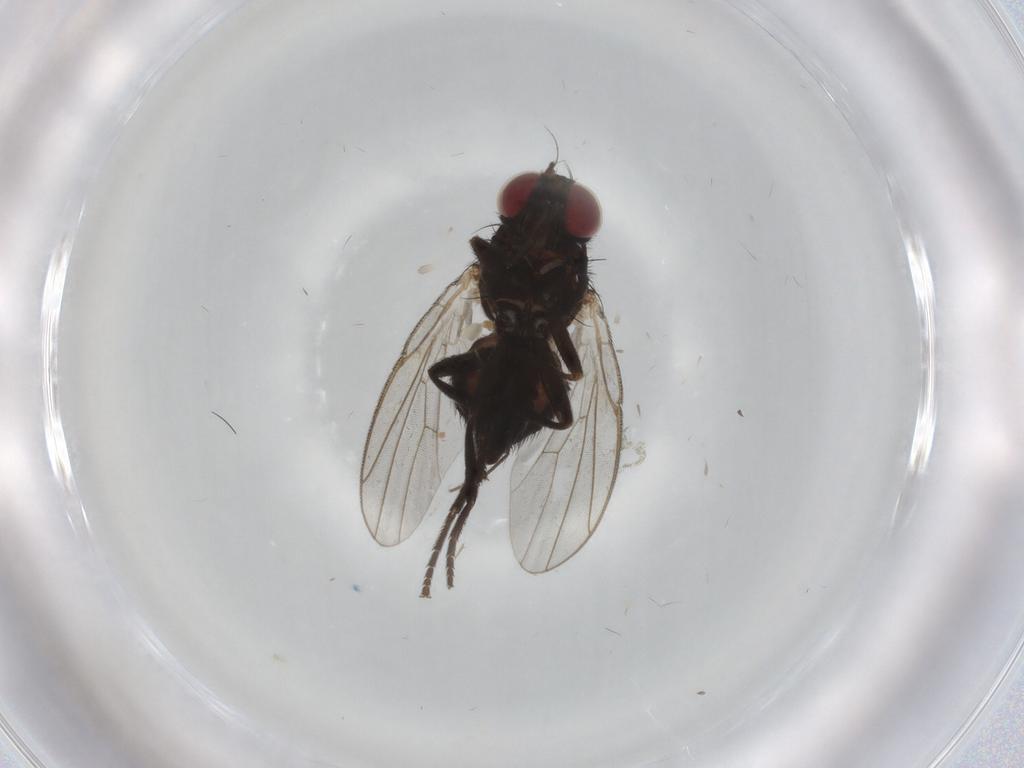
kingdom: Animalia
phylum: Arthropoda
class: Insecta
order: Diptera
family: Agromyzidae
